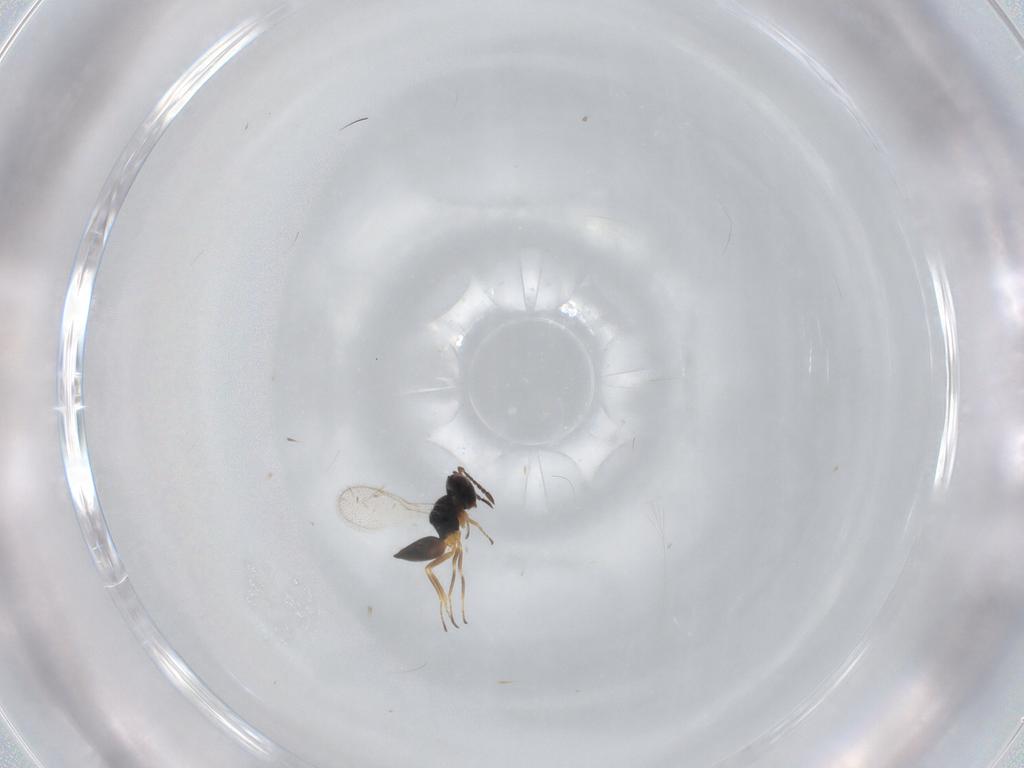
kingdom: Animalia
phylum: Arthropoda
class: Insecta
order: Hymenoptera
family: Pteromalidae
